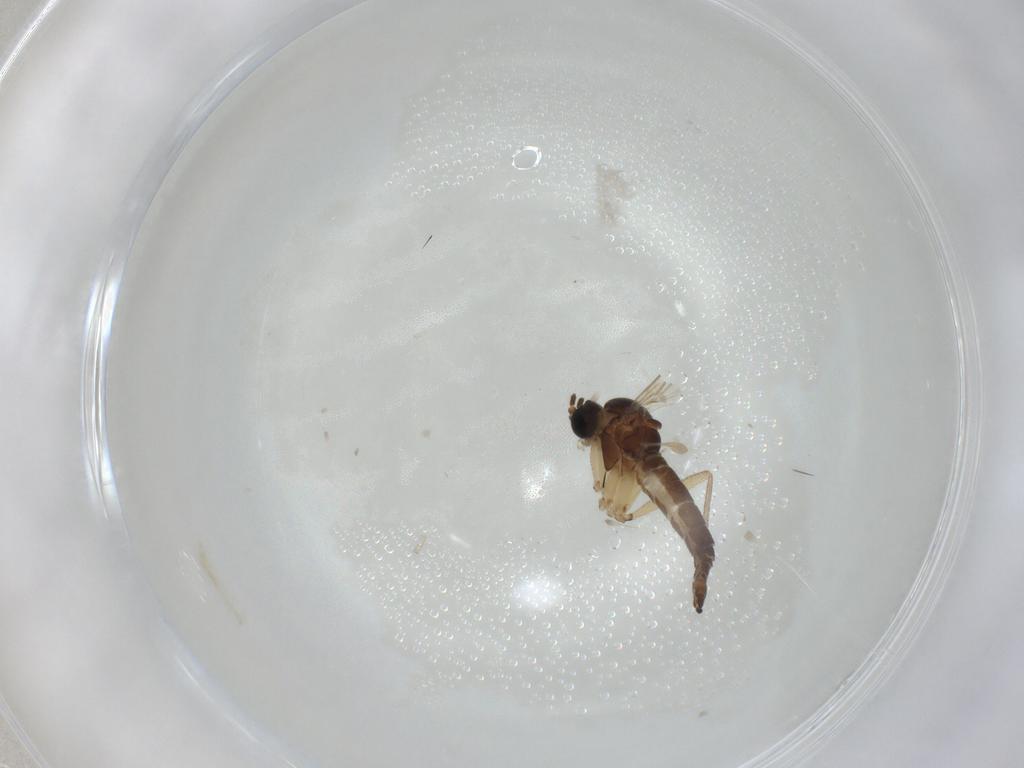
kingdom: Animalia
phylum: Arthropoda
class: Insecta
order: Diptera
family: Sciaridae
